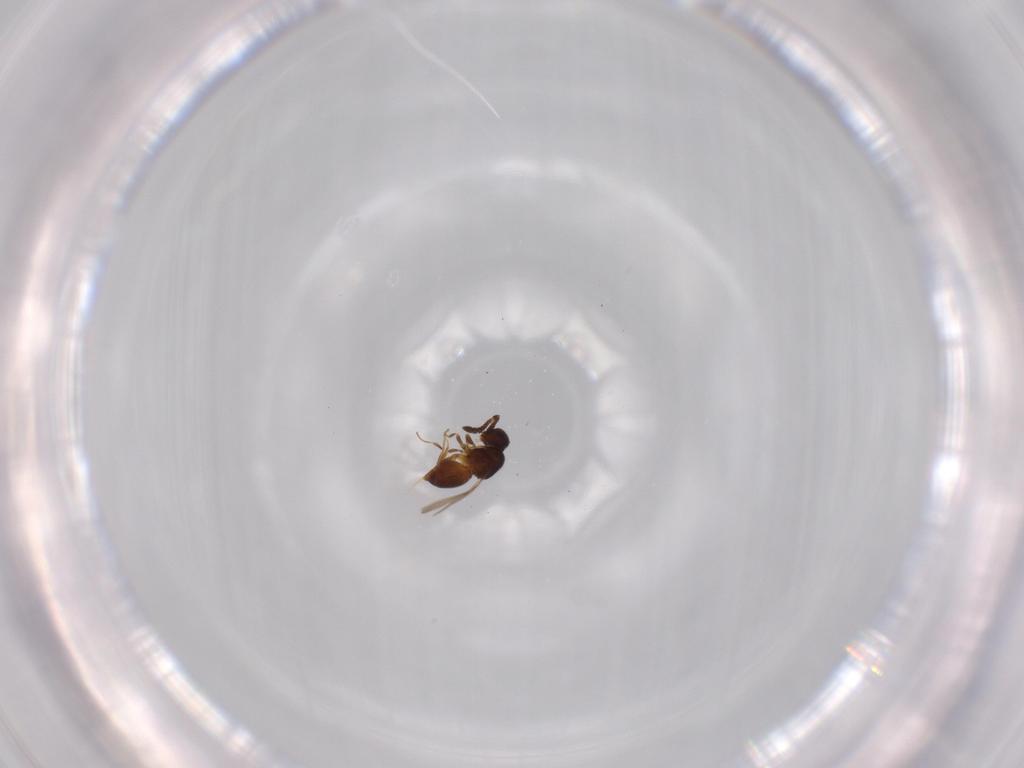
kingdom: Animalia
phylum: Arthropoda
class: Insecta
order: Hymenoptera
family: Ceraphronidae
